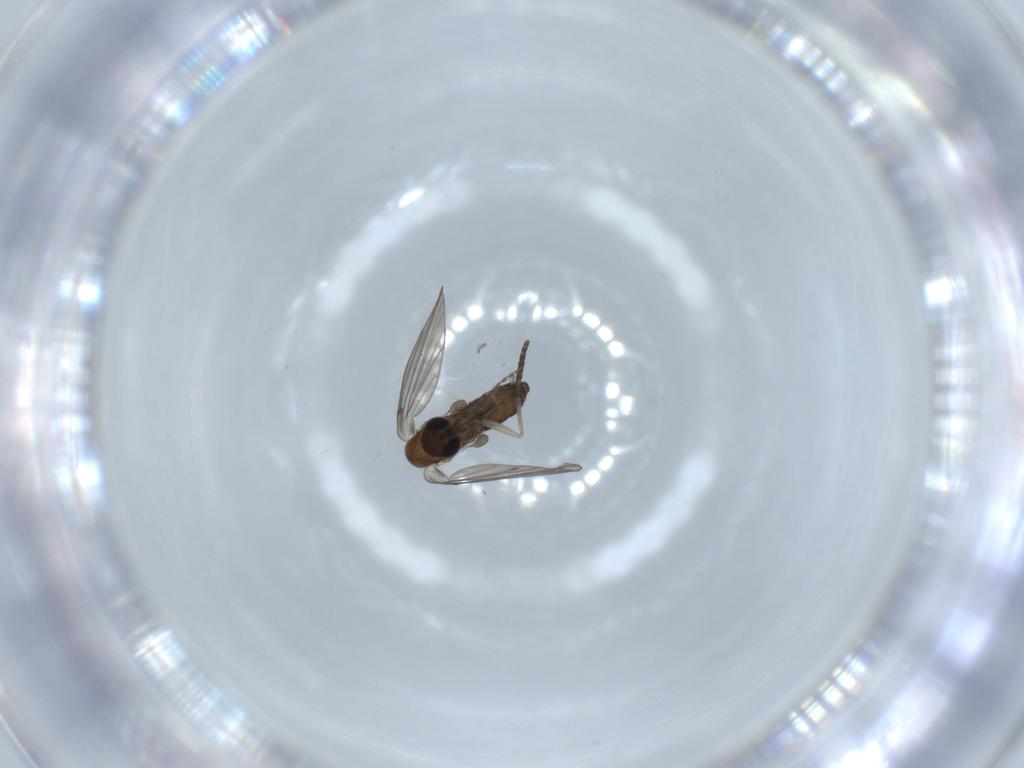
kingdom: Animalia
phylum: Arthropoda
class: Insecta
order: Diptera
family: Psychodidae
